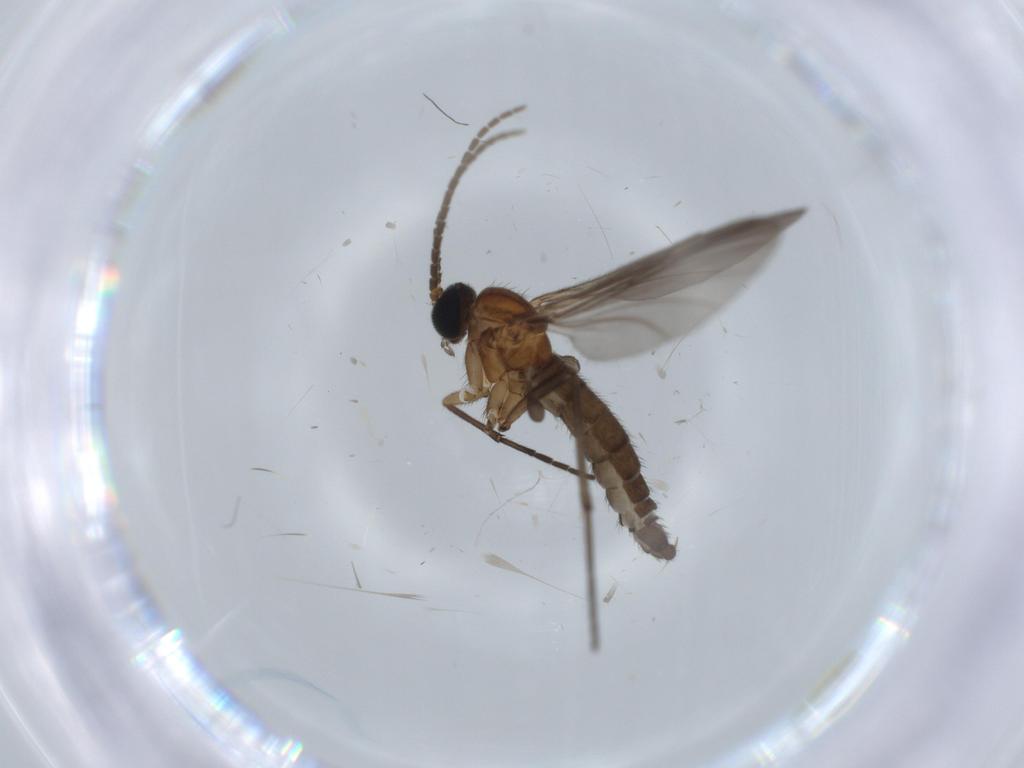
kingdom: Animalia
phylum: Arthropoda
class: Insecta
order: Diptera
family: Sciaridae
